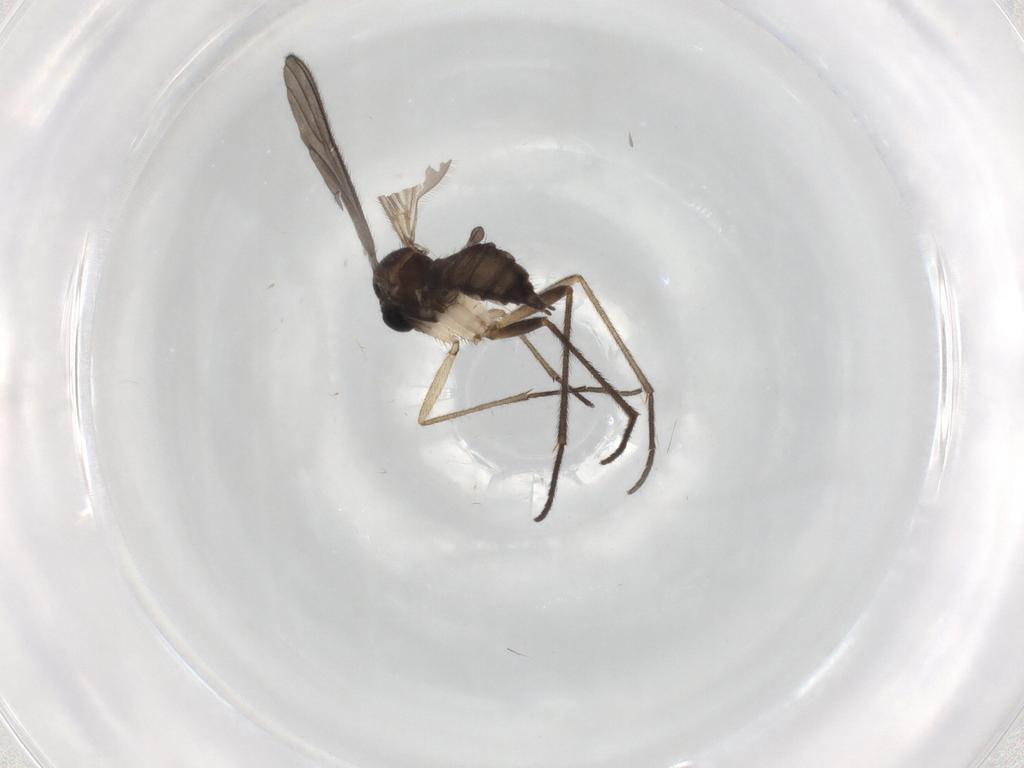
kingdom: Animalia
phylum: Arthropoda
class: Insecta
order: Diptera
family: Sciaridae
